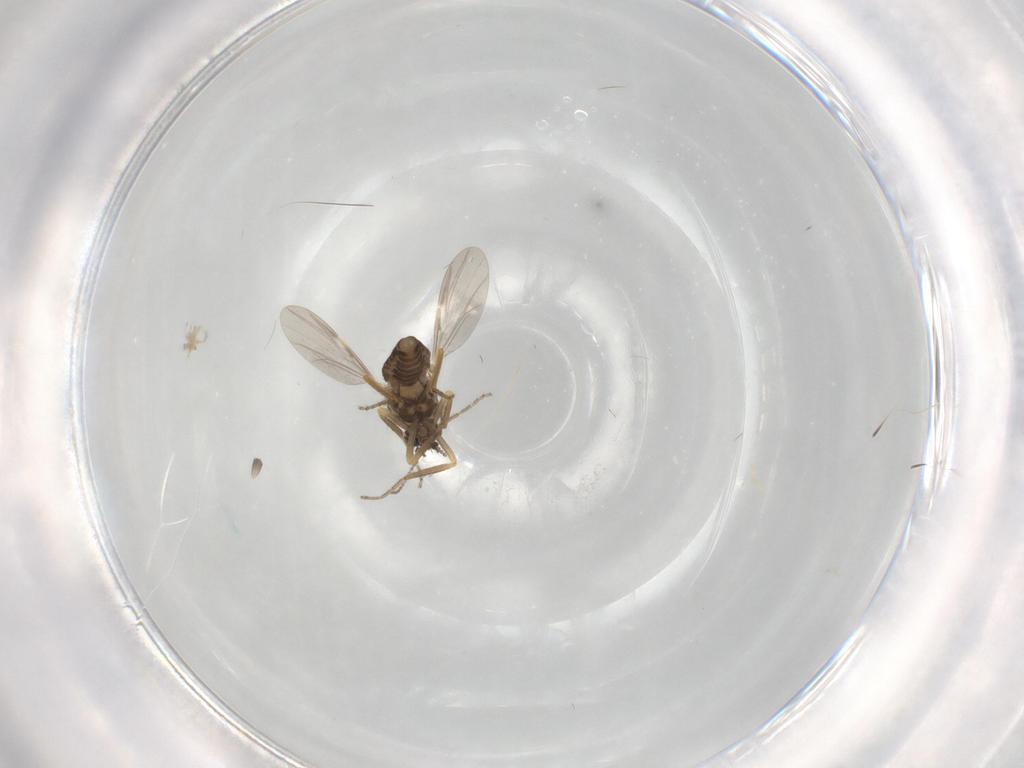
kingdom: Animalia
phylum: Arthropoda
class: Insecta
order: Diptera
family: Ceratopogonidae
